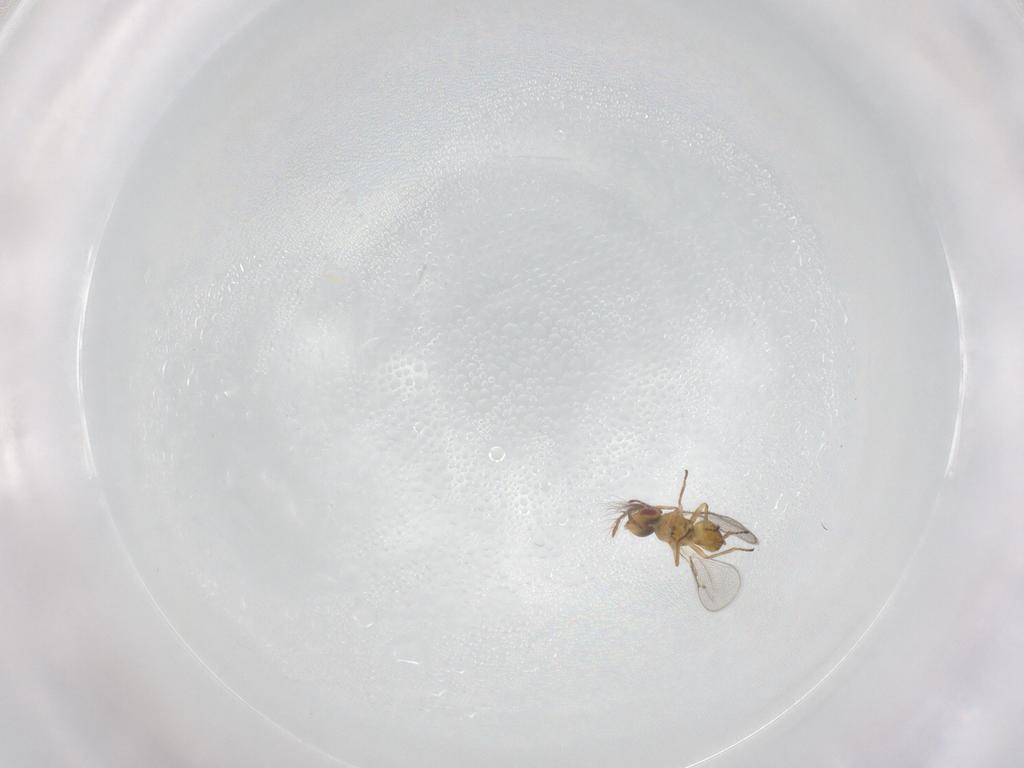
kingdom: Animalia
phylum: Arthropoda
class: Insecta
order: Hymenoptera
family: Eulophidae
